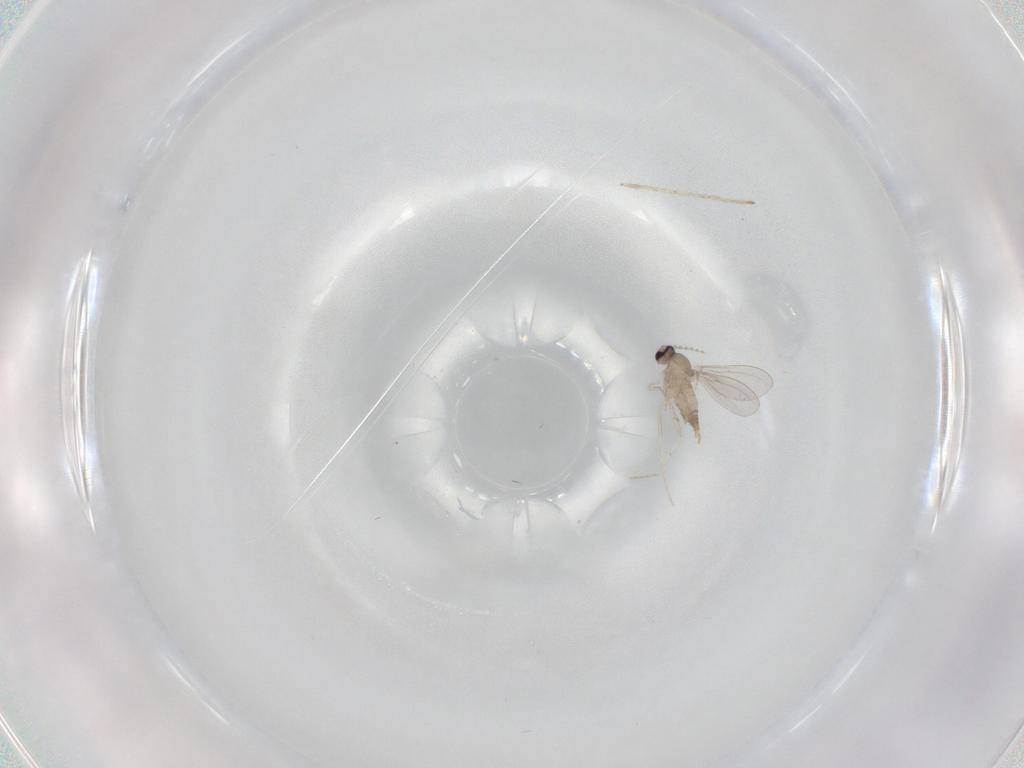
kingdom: Animalia
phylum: Arthropoda
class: Insecta
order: Diptera
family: Cecidomyiidae
